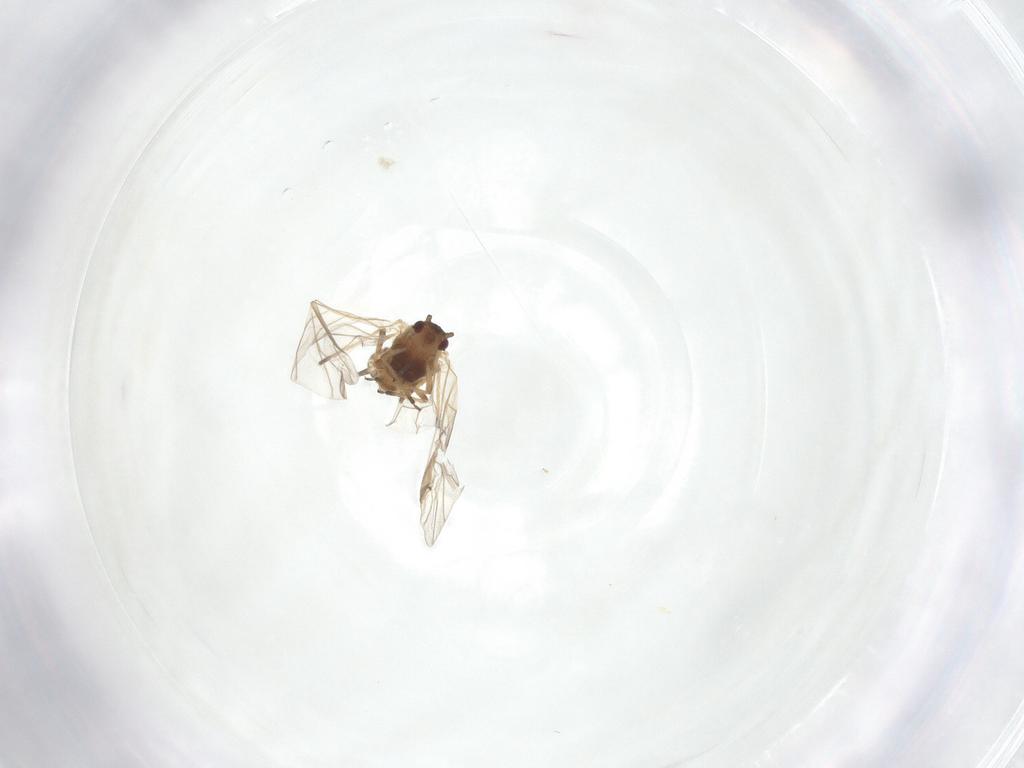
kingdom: Animalia
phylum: Arthropoda
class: Insecta
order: Hemiptera
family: Aphididae
